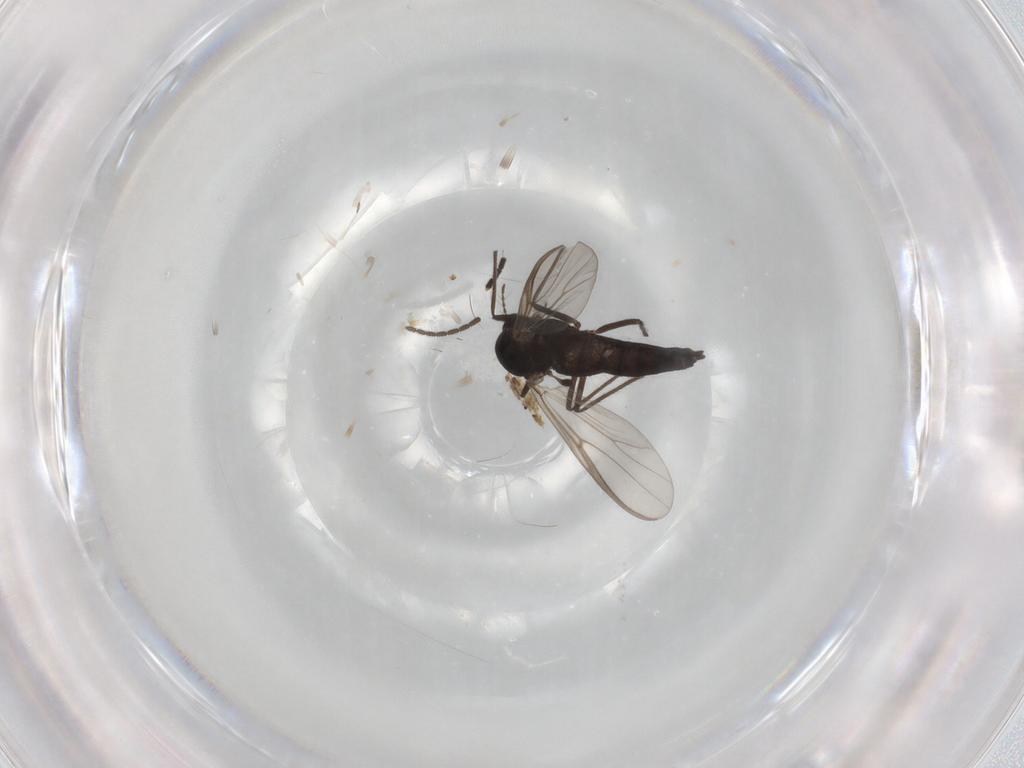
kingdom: Animalia
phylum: Arthropoda
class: Insecta
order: Diptera
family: Chironomidae
